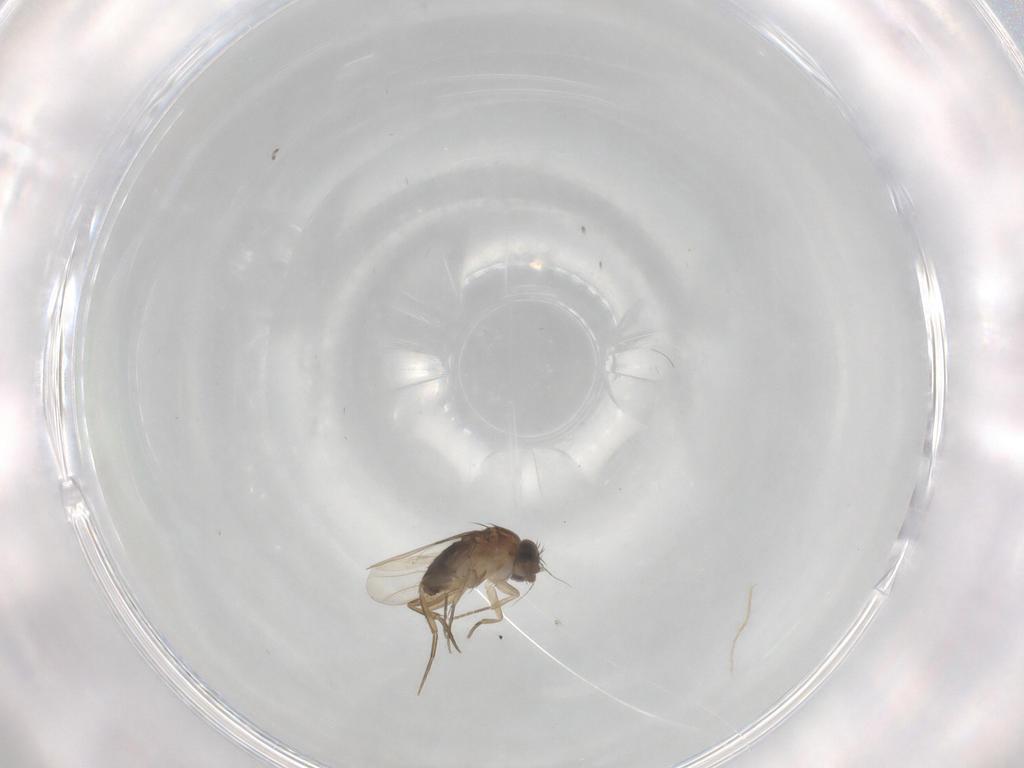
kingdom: Animalia
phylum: Arthropoda
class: Insecta
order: Diptera
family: Phoridae
